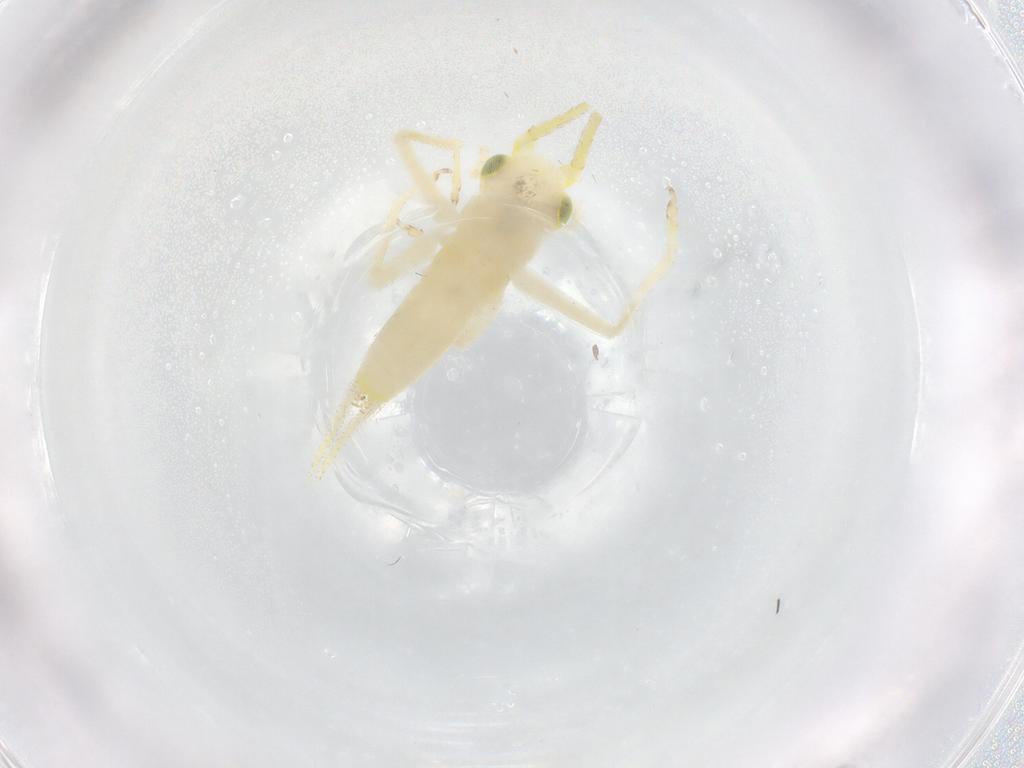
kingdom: Animalia
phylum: Arthropoda
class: Insecta
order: Orthoptera
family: Trigonidiidae
